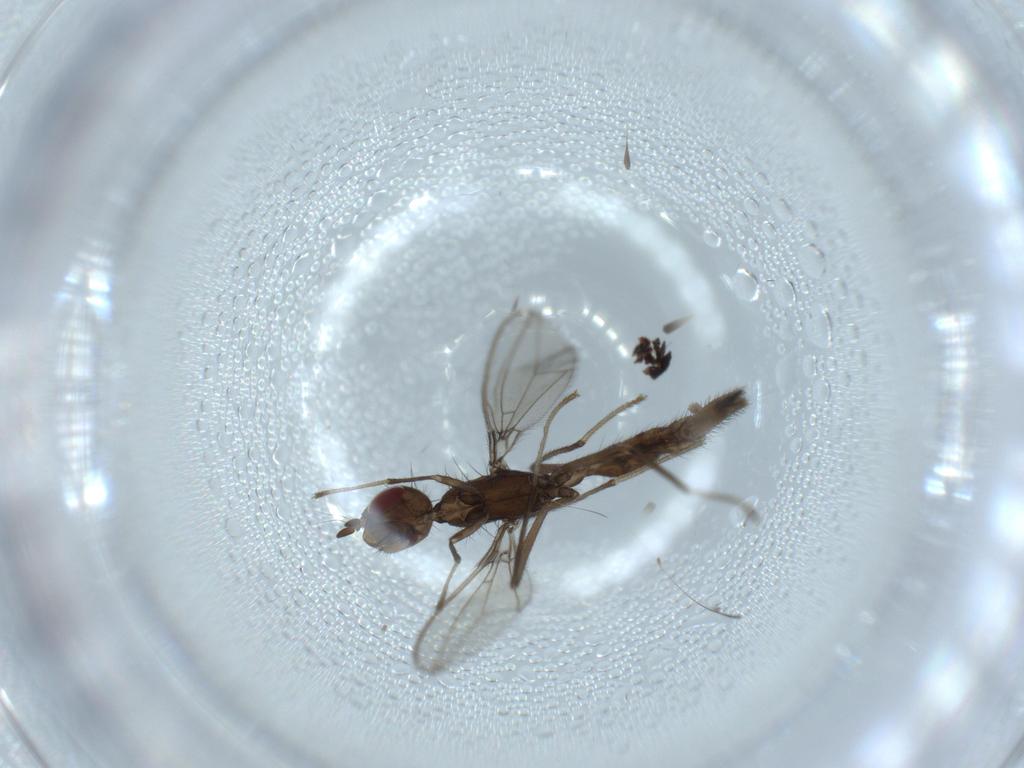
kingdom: Animalia
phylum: Arthropoda
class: Insecta
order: Diptera
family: Richardiidae
